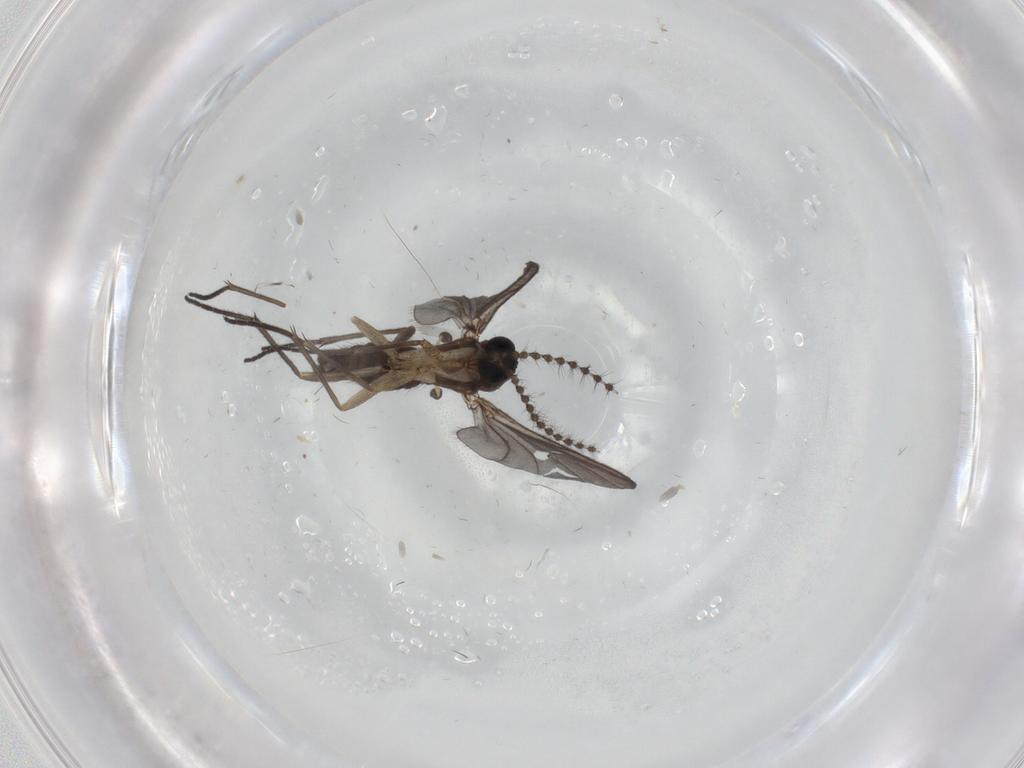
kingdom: Animalia
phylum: Arthropoda
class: Insecta
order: Diptera
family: Sciaridae
